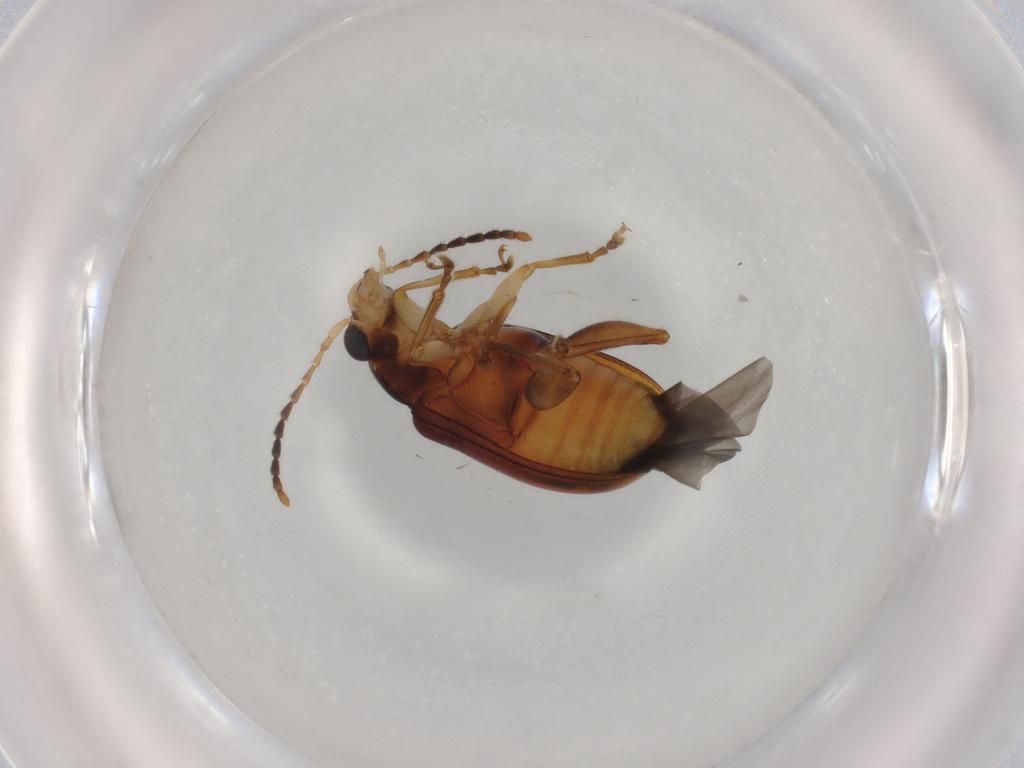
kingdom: Animalia
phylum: Arthropoda
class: Insecta
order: Coleoptera
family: Chrysomelidae
